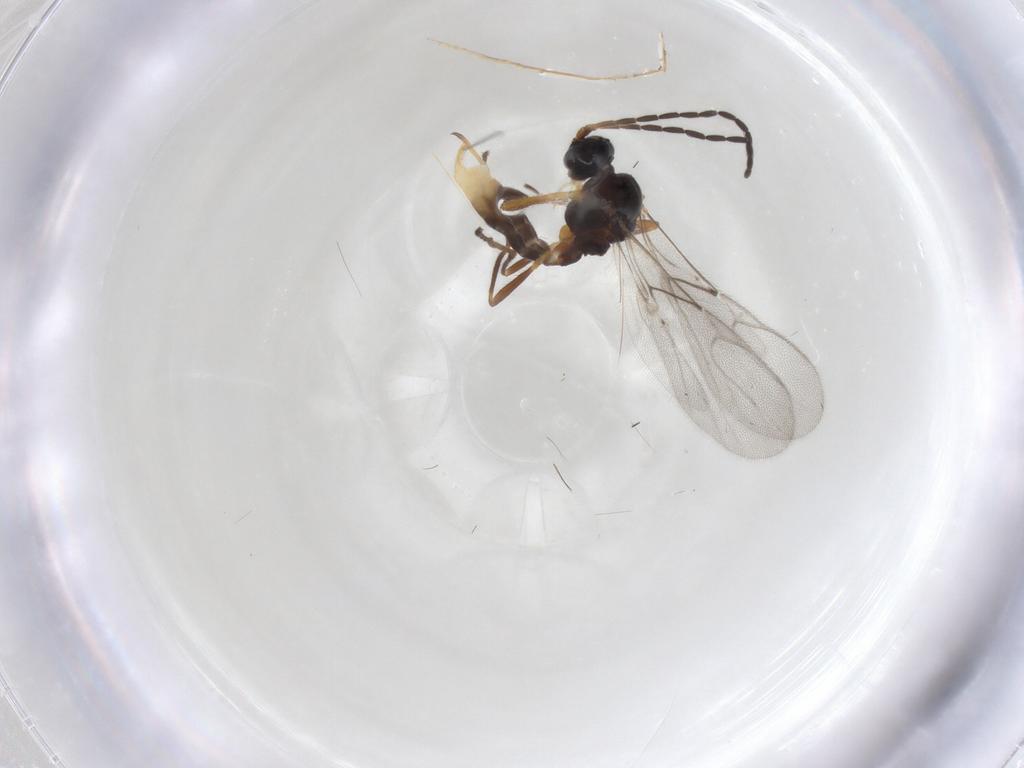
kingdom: Animalia
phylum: Arthropoda
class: Insecta
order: Hymenoptera
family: Braconidae
